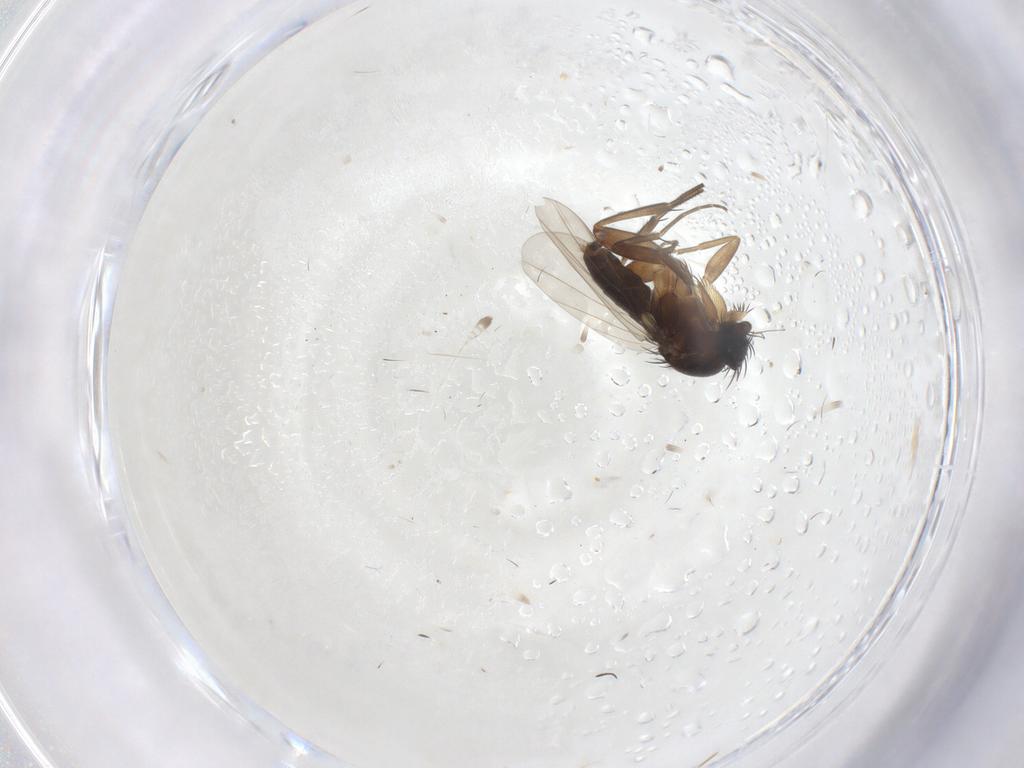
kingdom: Animalia
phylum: Arthropoda
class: Insecta
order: Diptera
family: Phoridae
